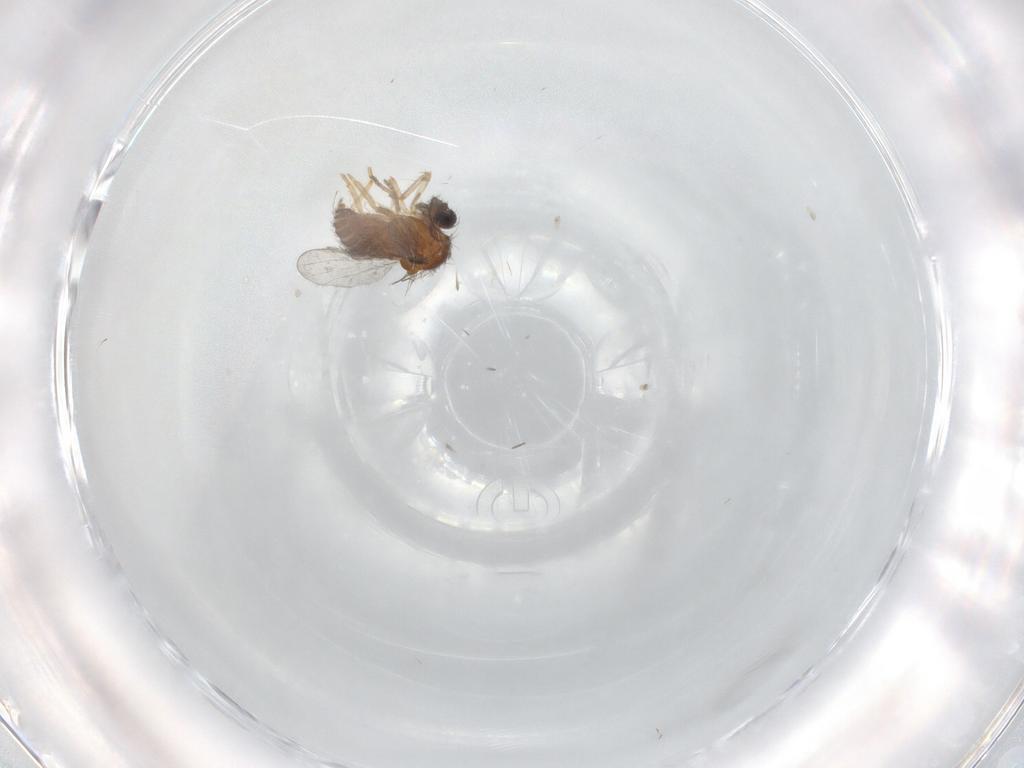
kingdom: Animalia
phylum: Arthropoda
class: Insecta
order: Diptera
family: Ceratopogonidae
